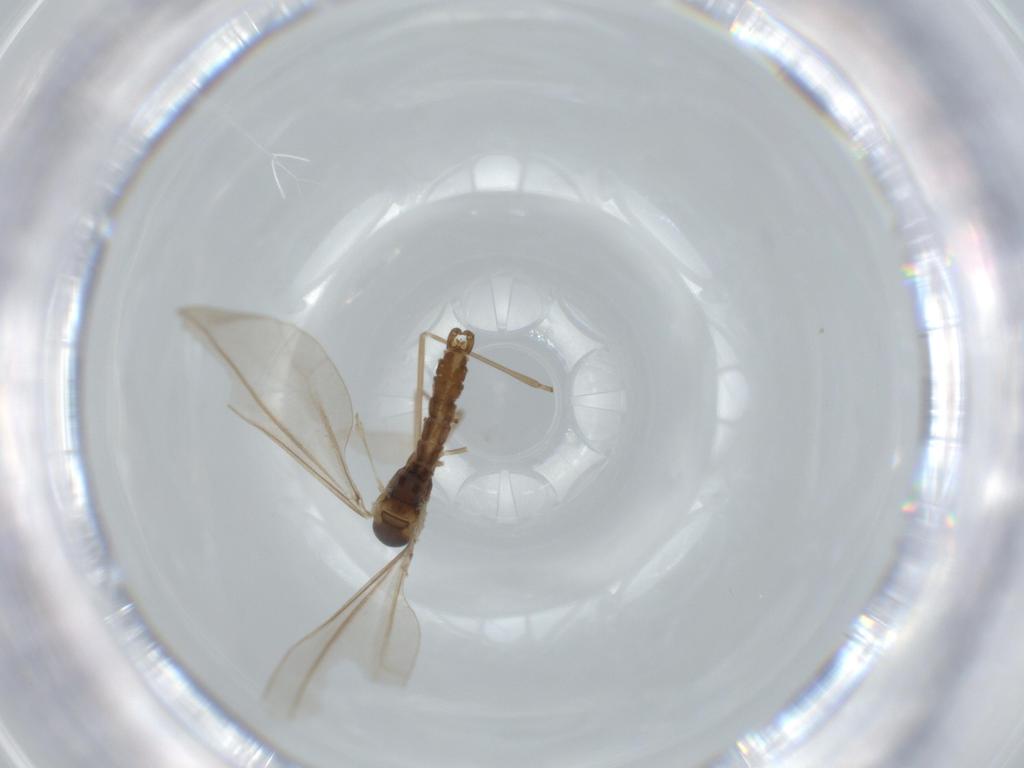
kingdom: Animalia
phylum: Arthropoda
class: Insecta
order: Diptera
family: Cecidomyiidae
